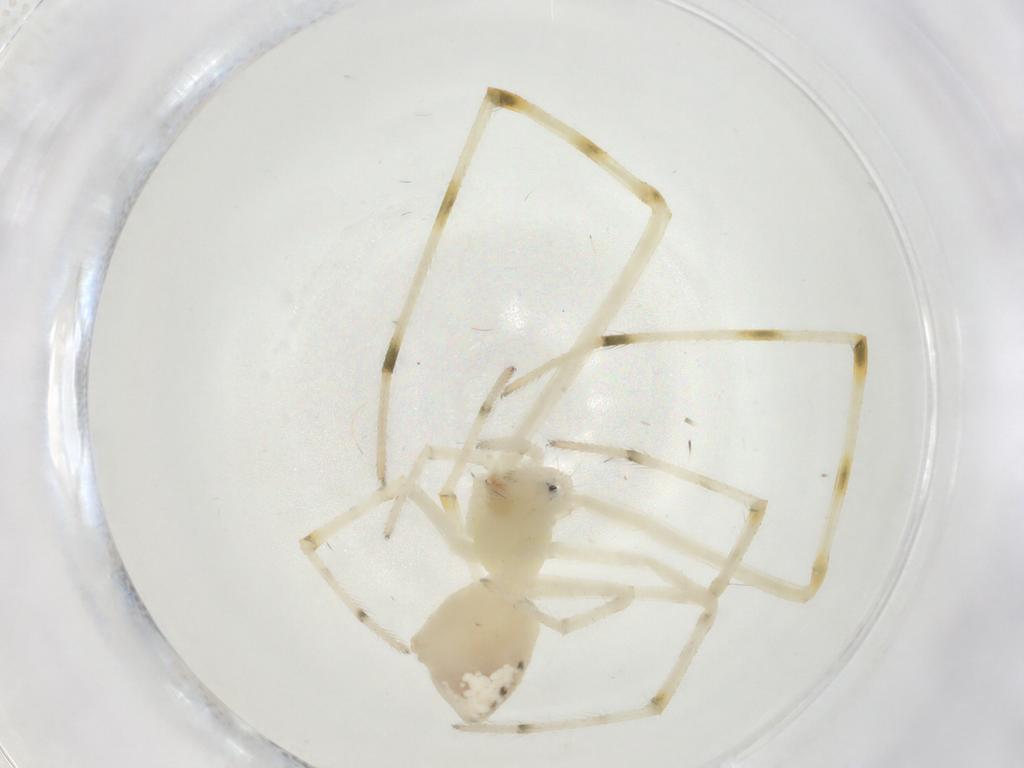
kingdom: Animalia
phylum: Arthropoda
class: Arachnida
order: Araneae
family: Theridiidae
